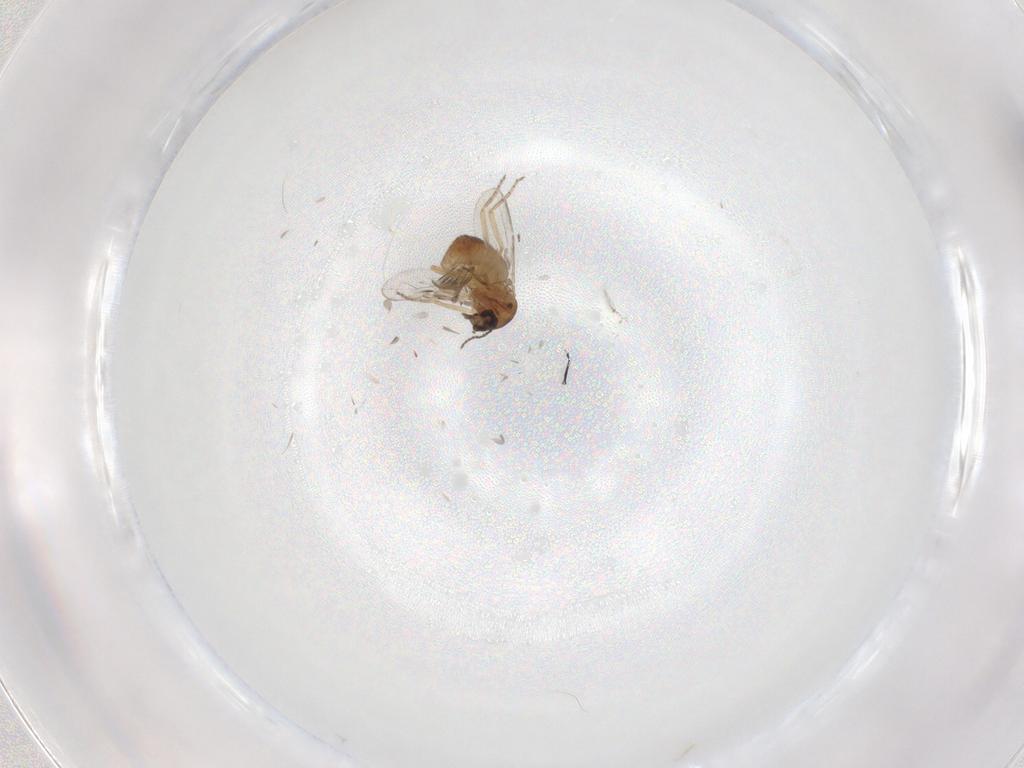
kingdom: Animalia
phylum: Arthropoda
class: Insecta
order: Diptera
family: Ceratopogonidae
